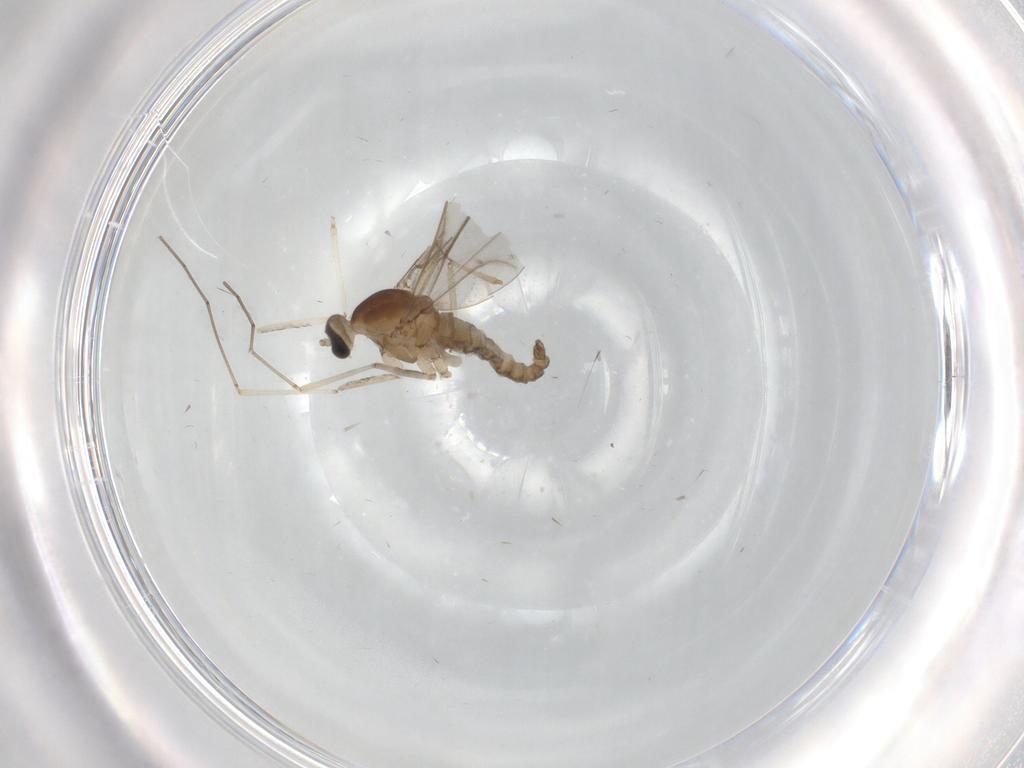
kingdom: Animalia
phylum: Arthropoda
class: Insecta
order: Diptera
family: Cecidomyiidae
